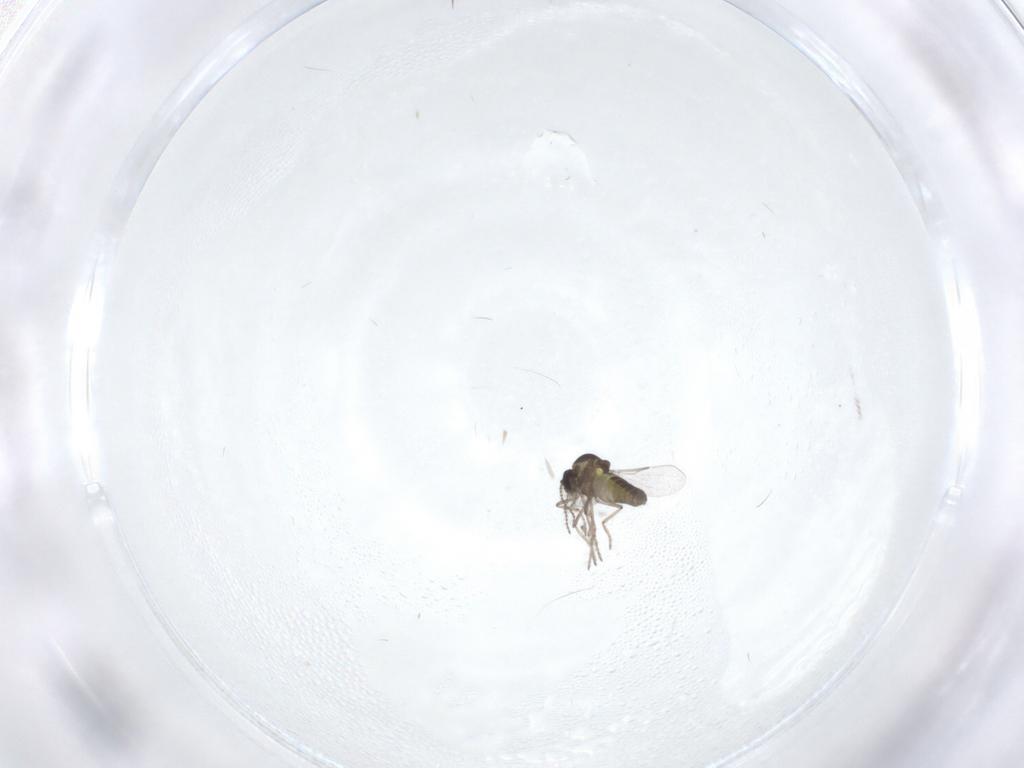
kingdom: Animalia
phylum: Arthropoda
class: Insecta
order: Diptera
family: Ceratopogonidae
